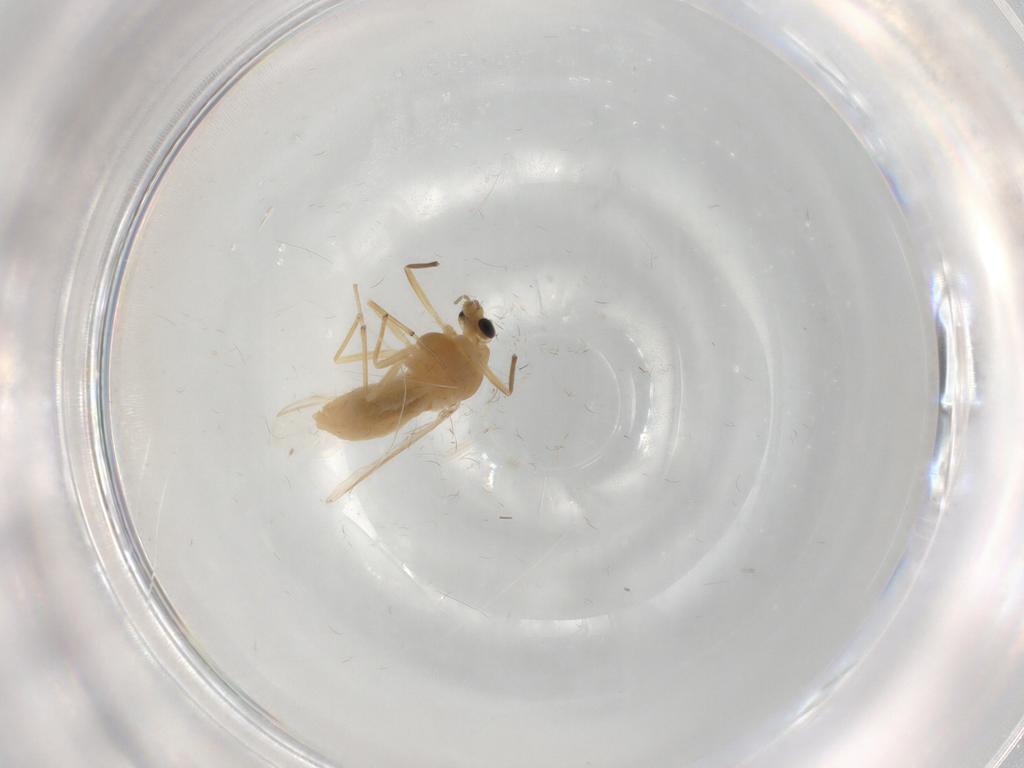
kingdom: Animalia
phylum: Arthropoda
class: Insecta
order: Diptera
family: Chironomidae
